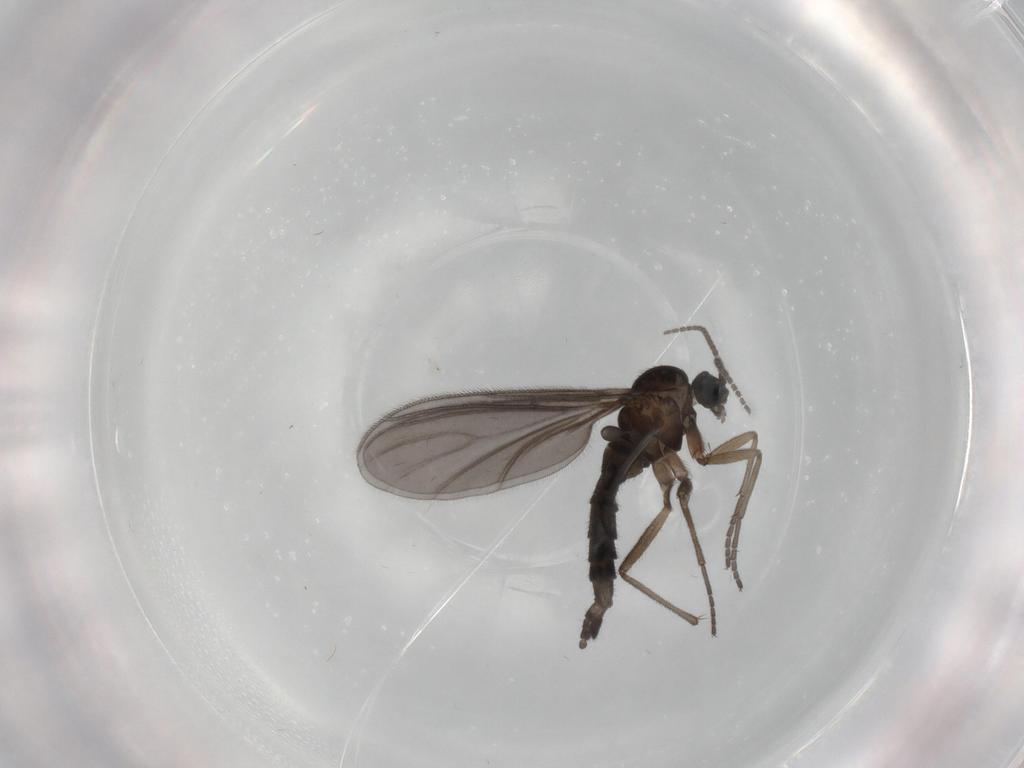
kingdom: Animalia
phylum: Arthropoda
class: Insecta
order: Diptera
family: Sciaridae
